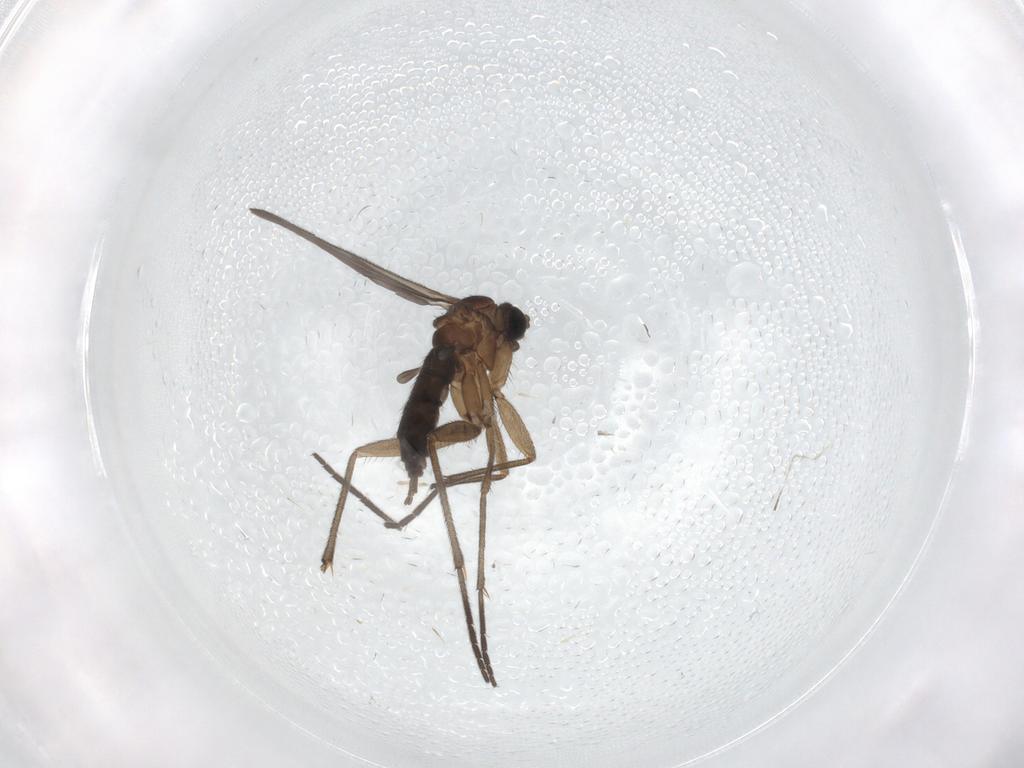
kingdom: Animalia
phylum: Arthropoda
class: Insecta
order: Diptera
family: Sciaridae
